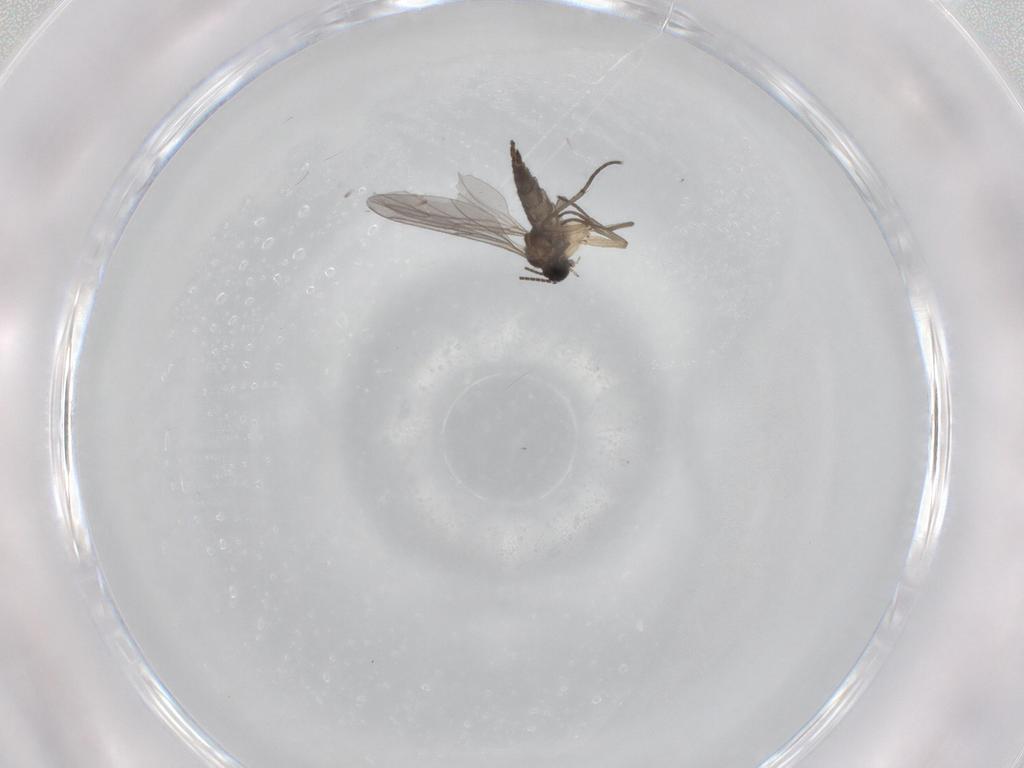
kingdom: Animalia
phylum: Arthropoda
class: Insecta
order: Diptera
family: Sciaridae
